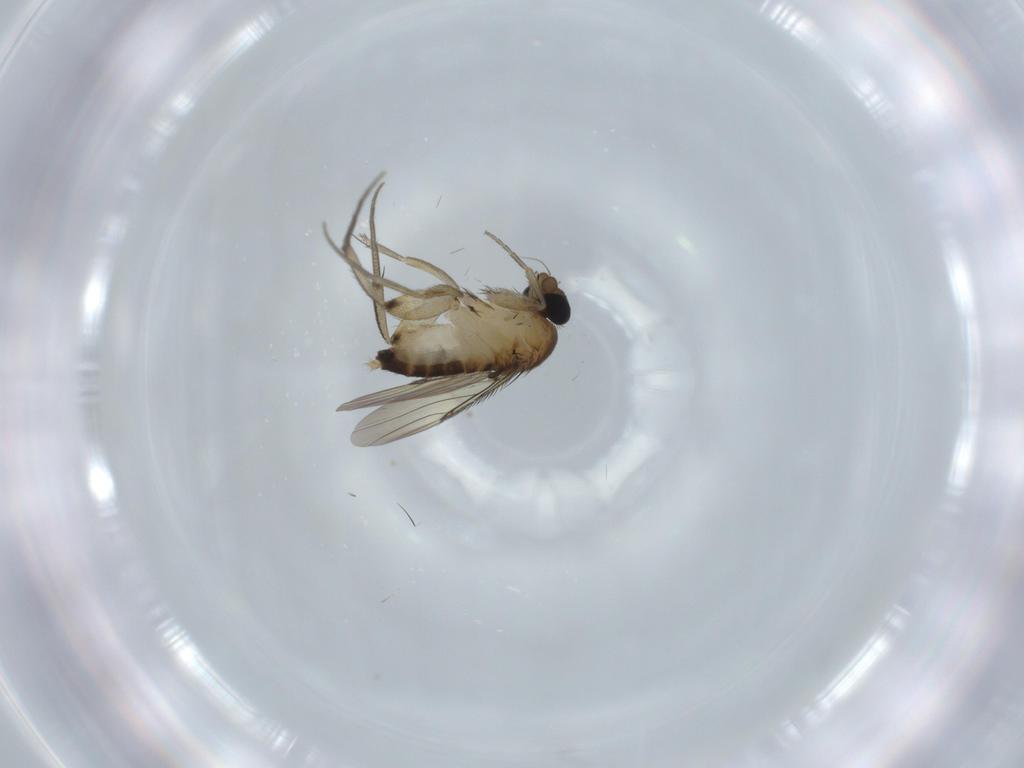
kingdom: Animalia
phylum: Arthropoda
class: Insecta
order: Diptera
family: Phoridae
